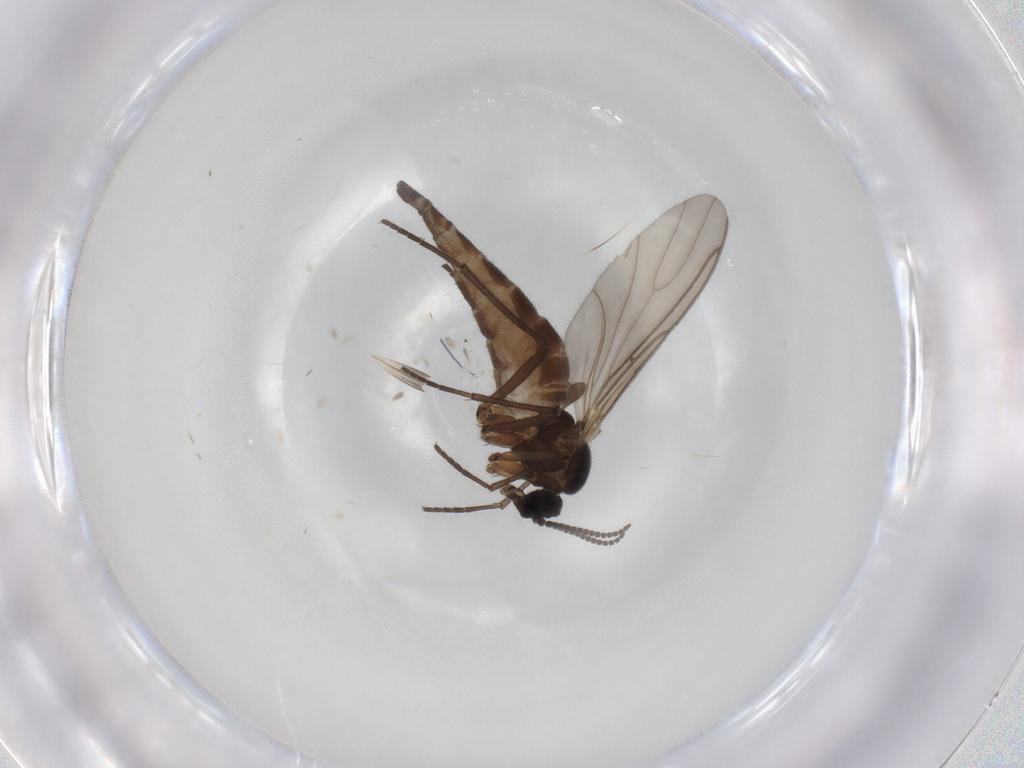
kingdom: Animalia
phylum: Arthropoda
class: Insecta
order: Diptera
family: Sciaridae
